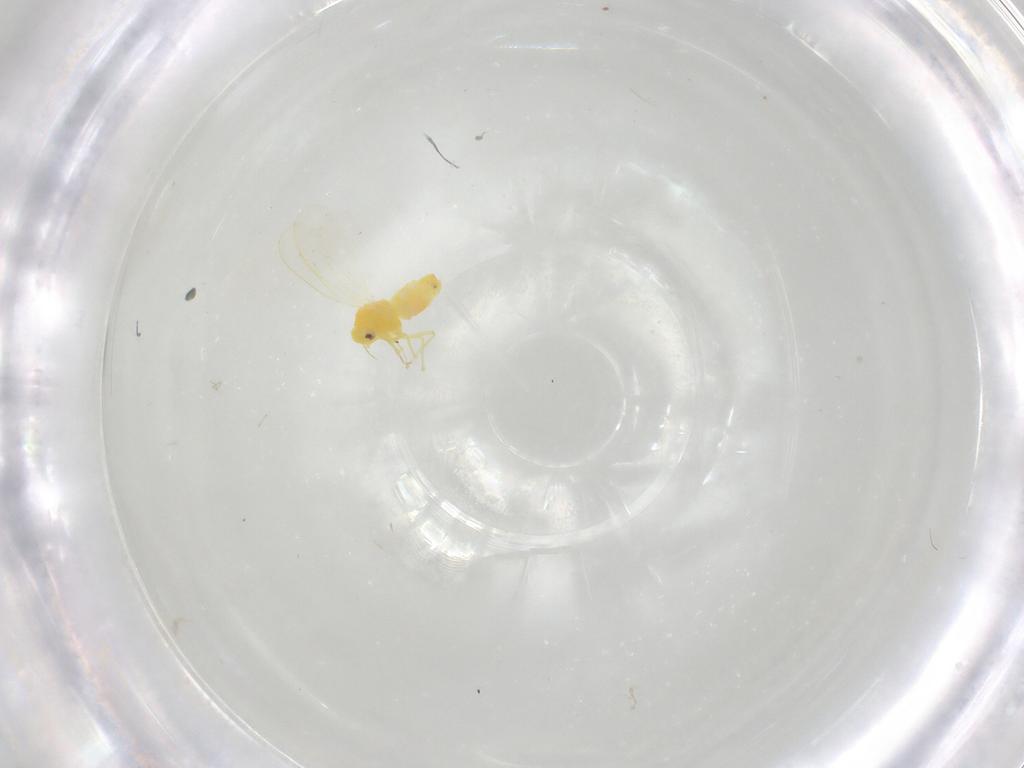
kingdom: Animalia
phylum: Arthropoda
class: Insecta
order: Hemiptera
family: Aleyrodidae
